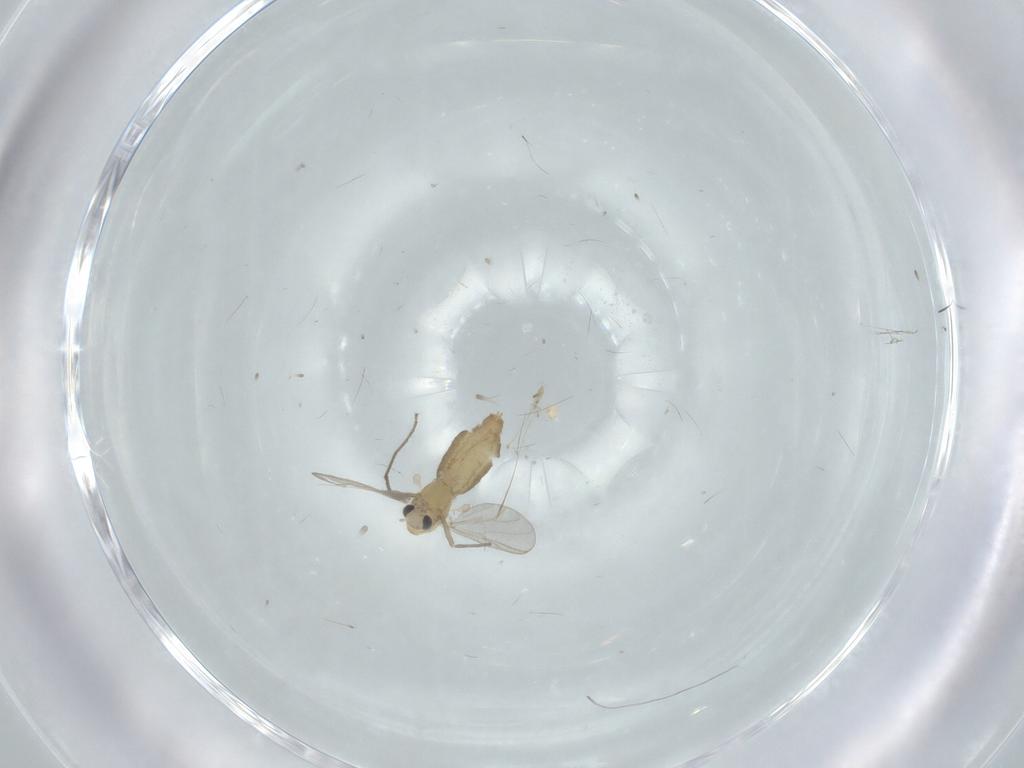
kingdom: Animalia
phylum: Arthropoda
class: Insecta
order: Diptera
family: Chironomidae
